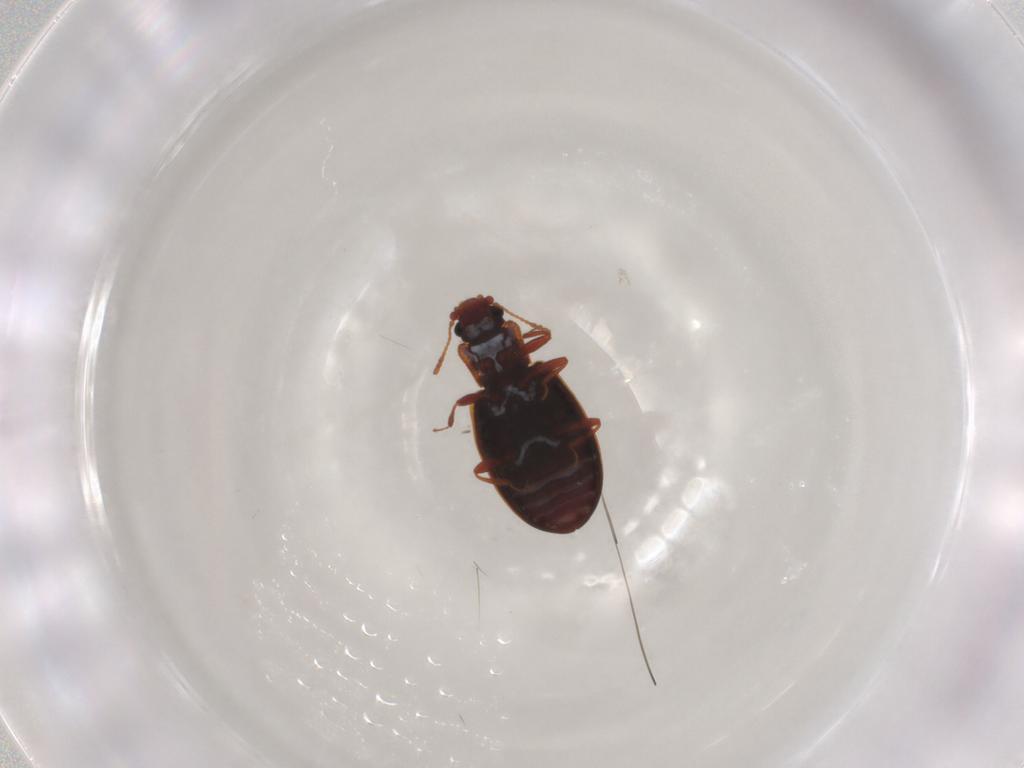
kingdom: Animalia
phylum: Arthropoda
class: Insecta
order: Coleoptera
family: Latridiidae
